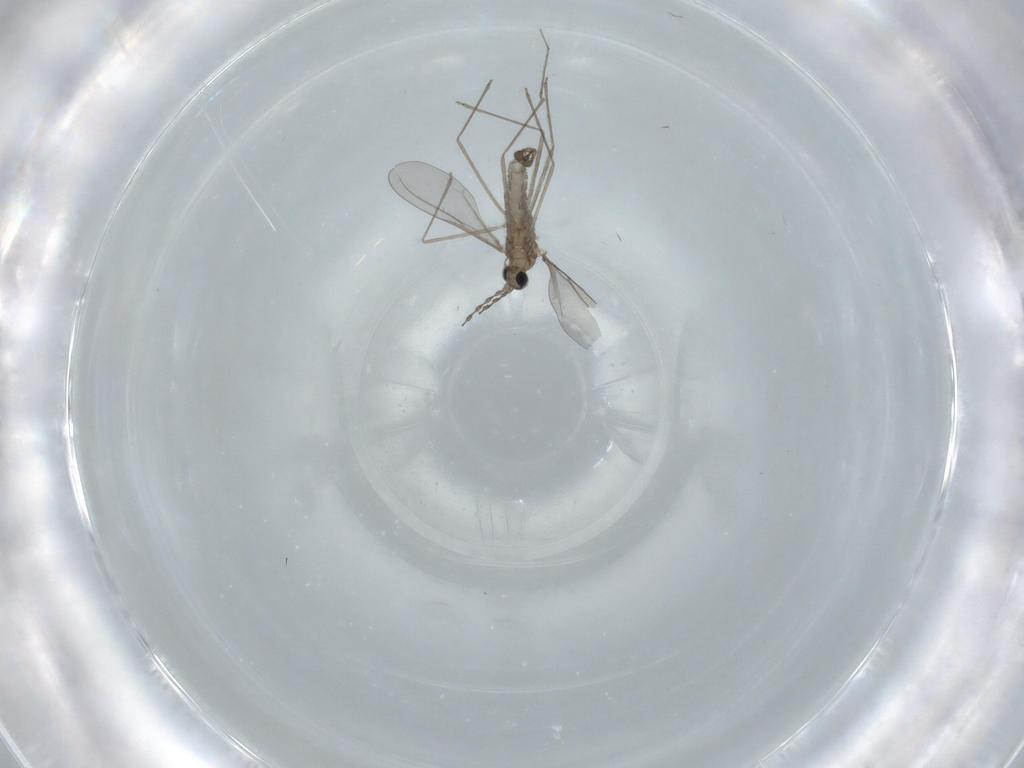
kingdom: Animalia
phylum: Arthropoda
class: Insecta
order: Diptera
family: Cecidomyiidae
